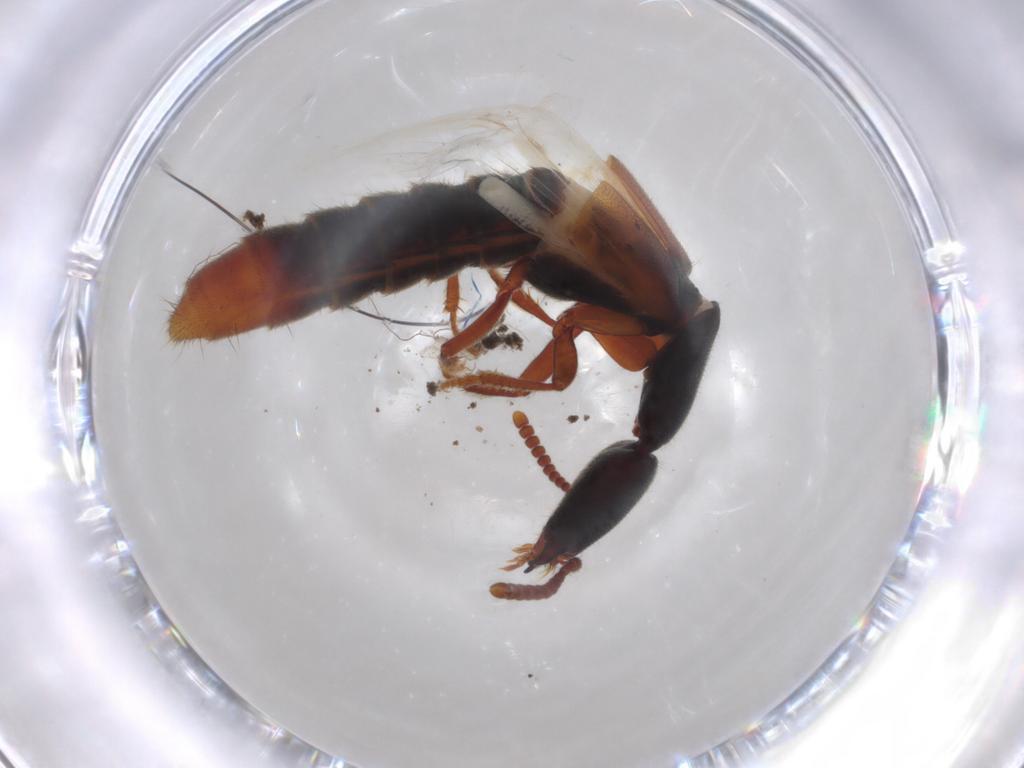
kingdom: Animalia
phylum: Arthropoda
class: Insecta
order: Coleoptera
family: Staphylinidae
